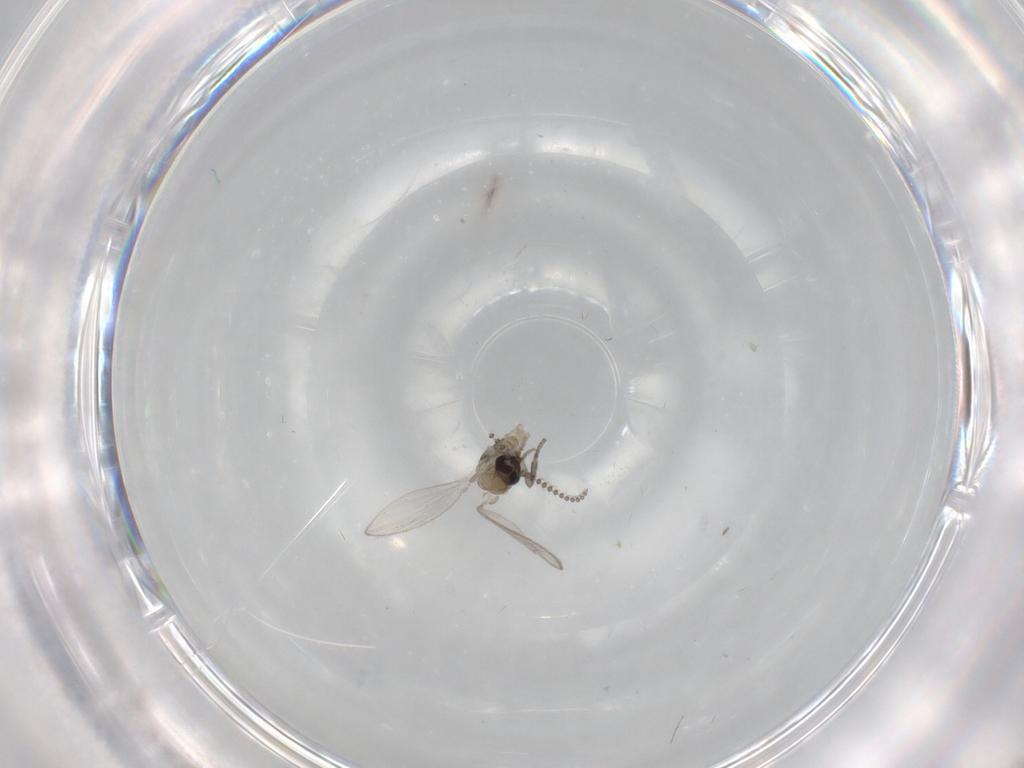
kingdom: Animalia
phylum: Arthropoda
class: Insecta
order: Diptera
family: Psychodidae
